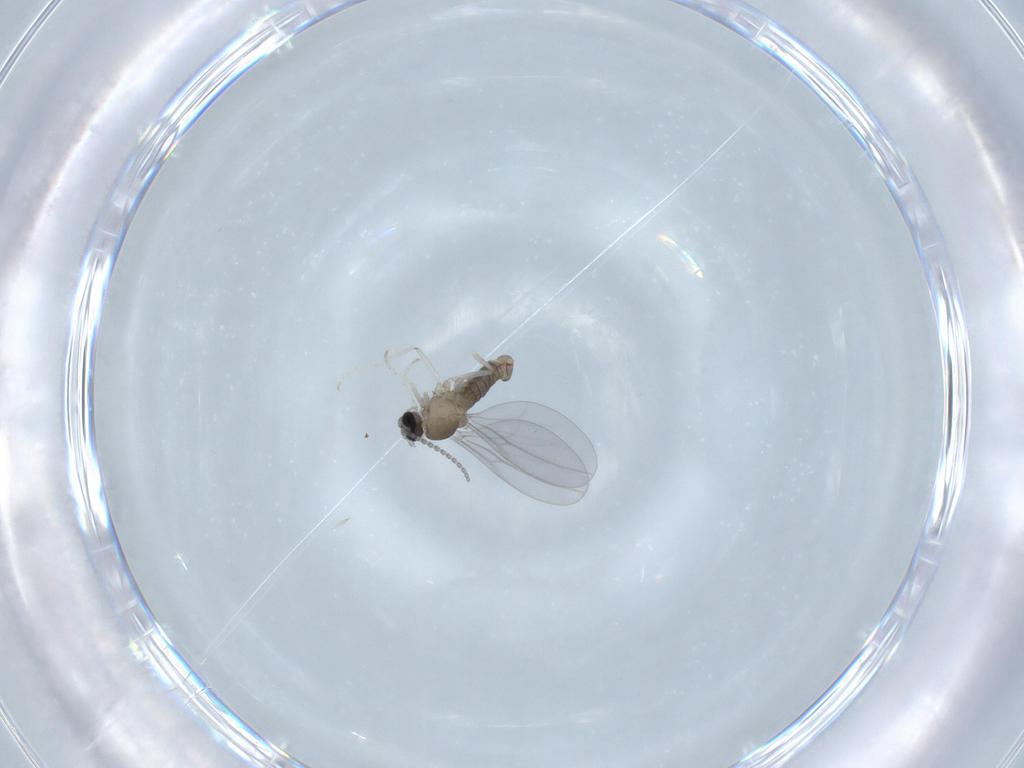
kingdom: Animalia
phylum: Arthropoda
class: Insecta
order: Diptera
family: Cecidomyiidae
